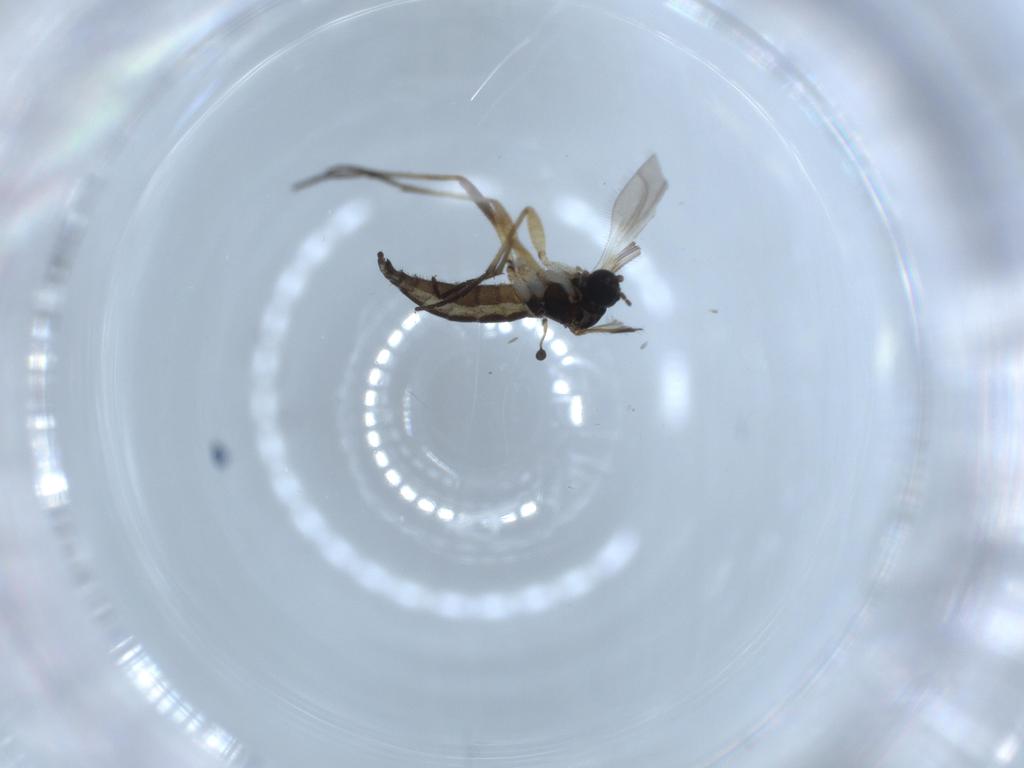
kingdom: Animalia
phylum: Arthropoda
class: Insecta
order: Diptera
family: Sciaridae
